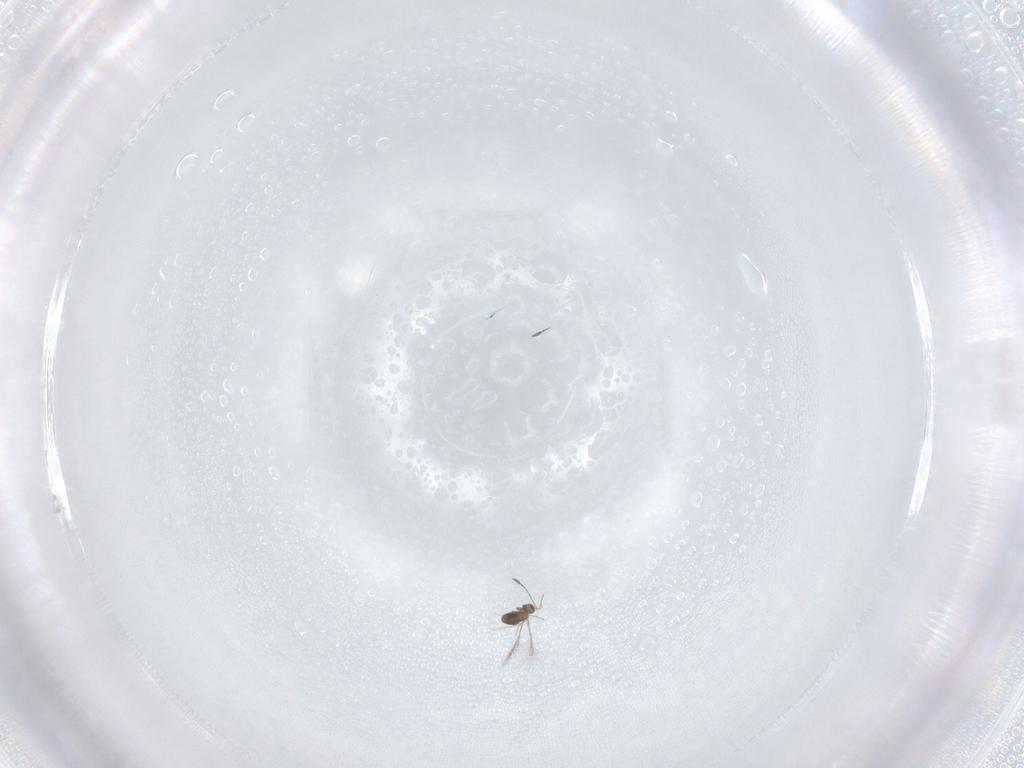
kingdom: Animalia
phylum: Arthropoda
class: Insecta
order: Hymenoptera
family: Scelionidae
